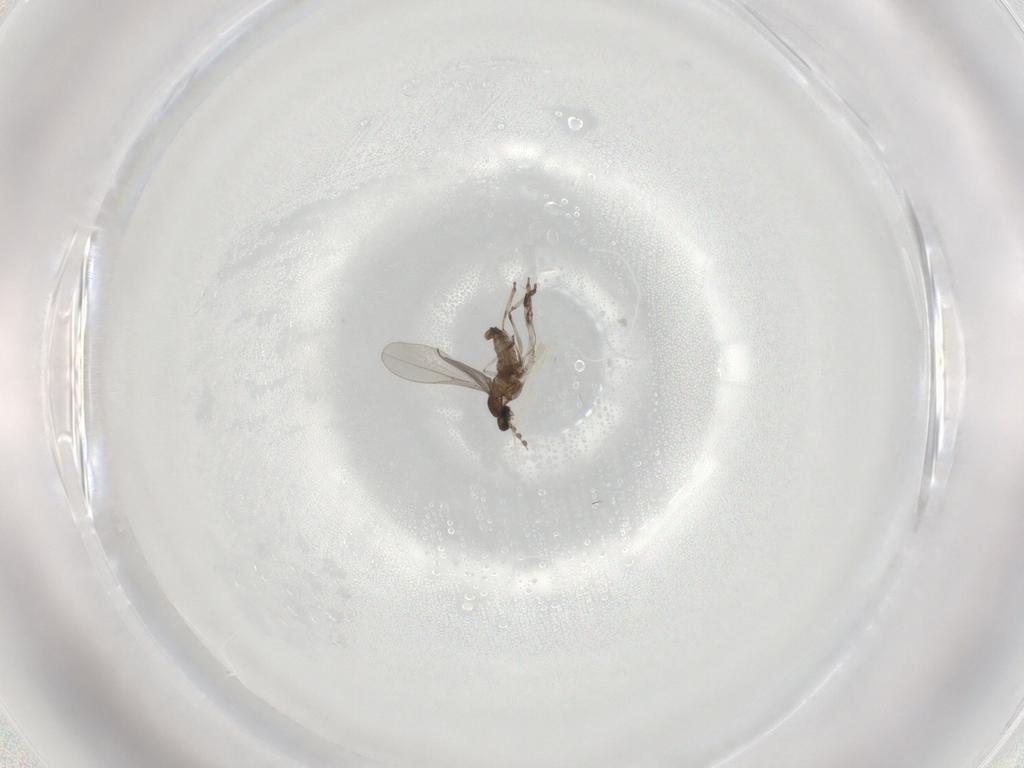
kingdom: Animalia
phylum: Arthropoda
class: Insecta
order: Diptera
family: Cecidomyiidae
